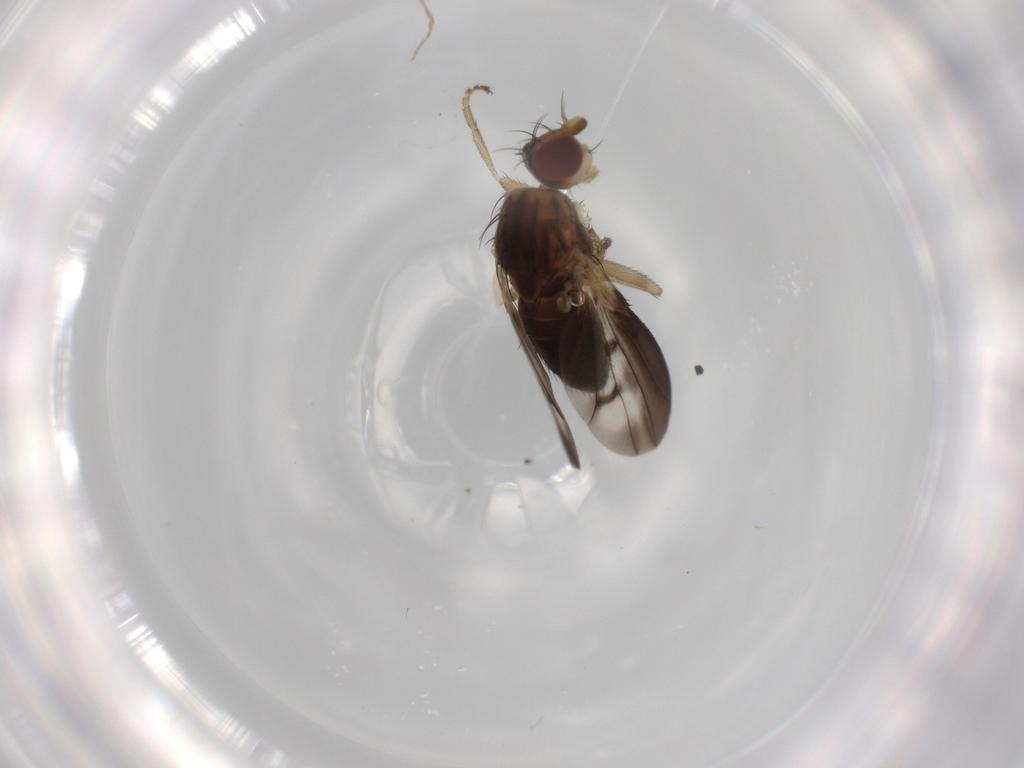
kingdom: Animalia
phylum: Arthropoda
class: Insecta
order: Diptera
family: Heleomyzidae
